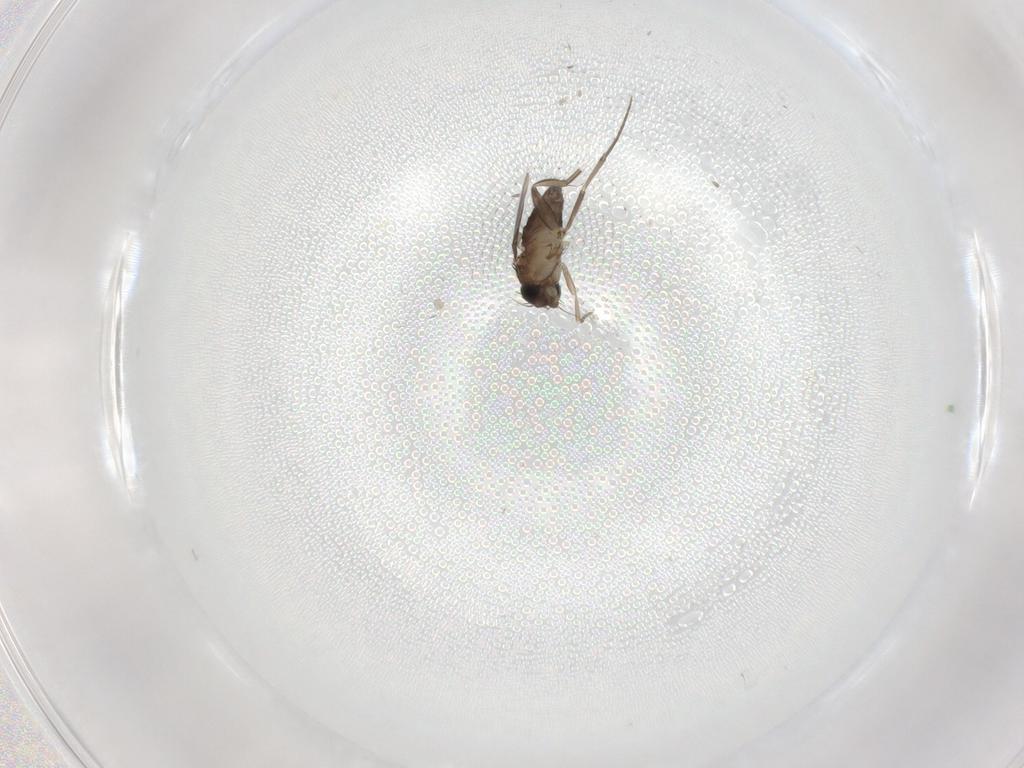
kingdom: Animalia
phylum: Arthropoda
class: Insecta
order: Diptera
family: Phoridae
